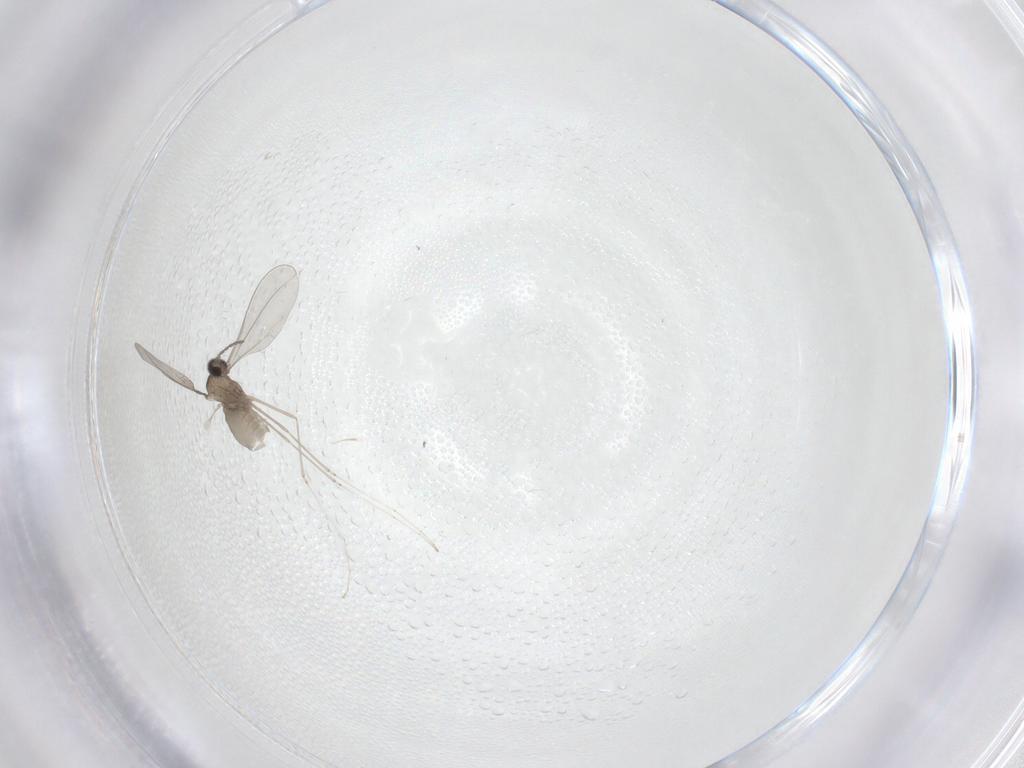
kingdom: Animalia
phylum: Arthropoda
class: Insecta
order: Diptera
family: Cecidomyiidae
